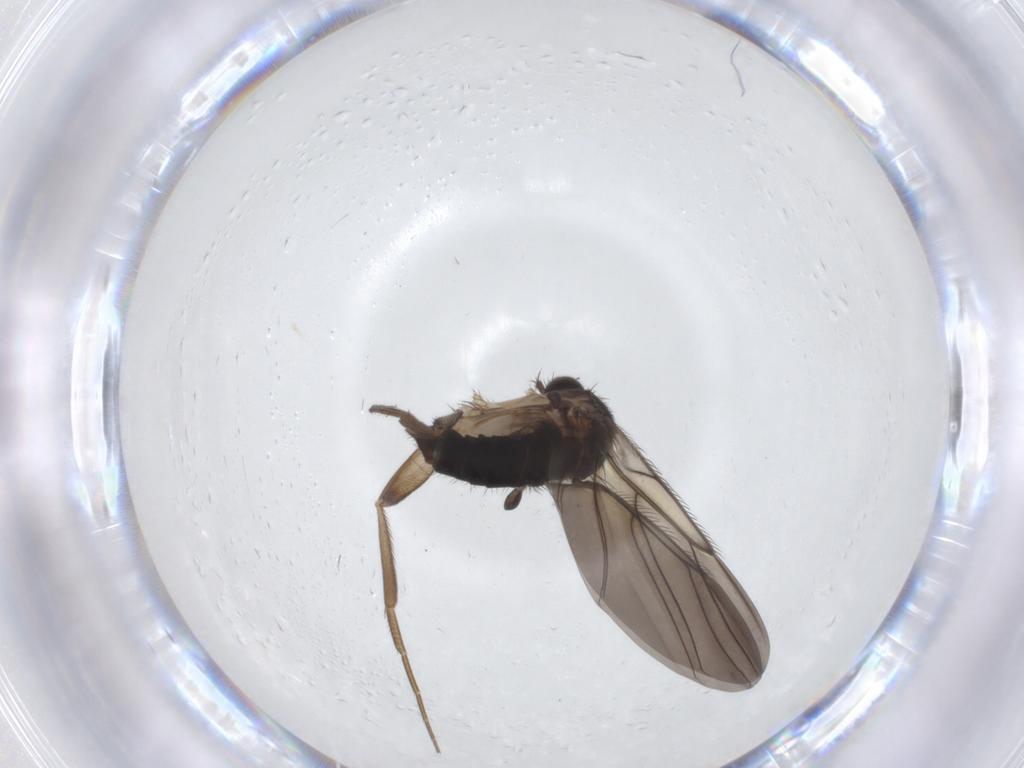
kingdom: Animalia
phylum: Arthropoda
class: Insecta
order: Diptera
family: Phoridae
